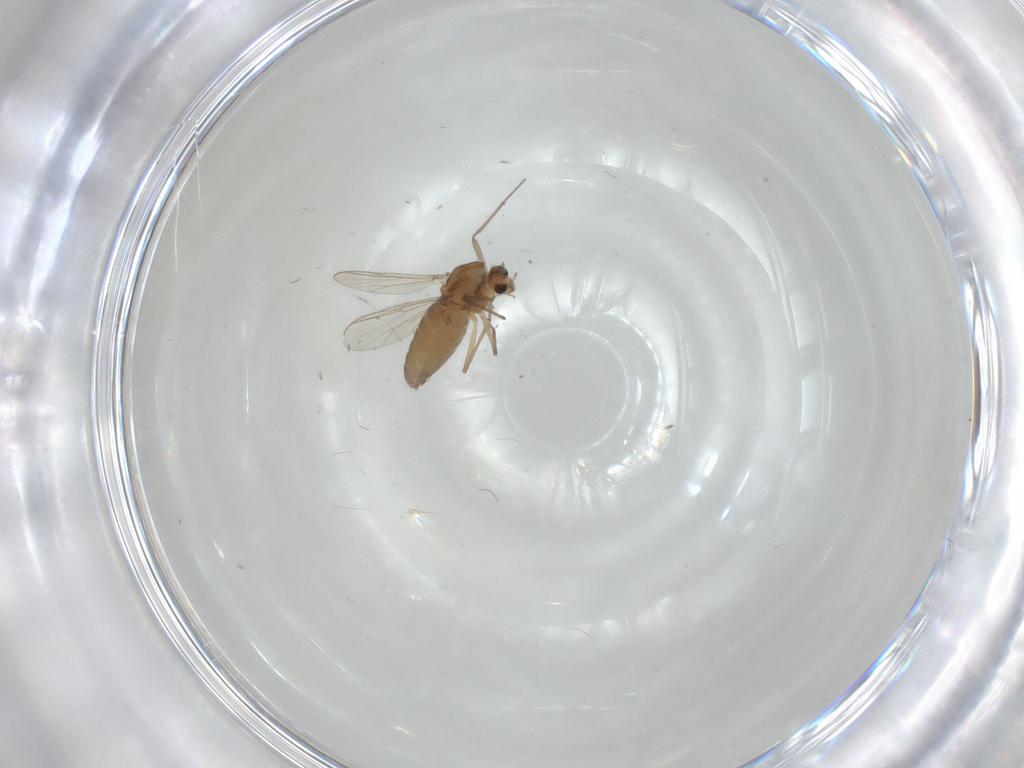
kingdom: Animalia
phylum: Arthropoda
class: Insecta
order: Diptera
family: Chironomidae
